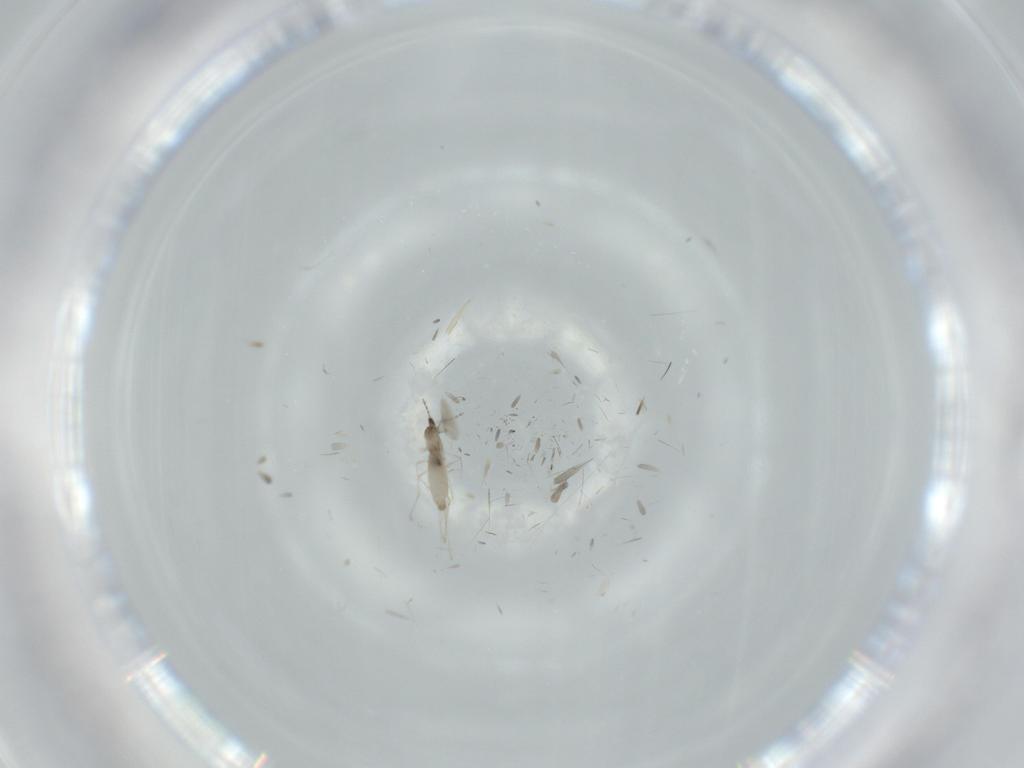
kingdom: Animalia
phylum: Arthropoda
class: Insecta
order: Diptera
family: Cecidomyiidae
